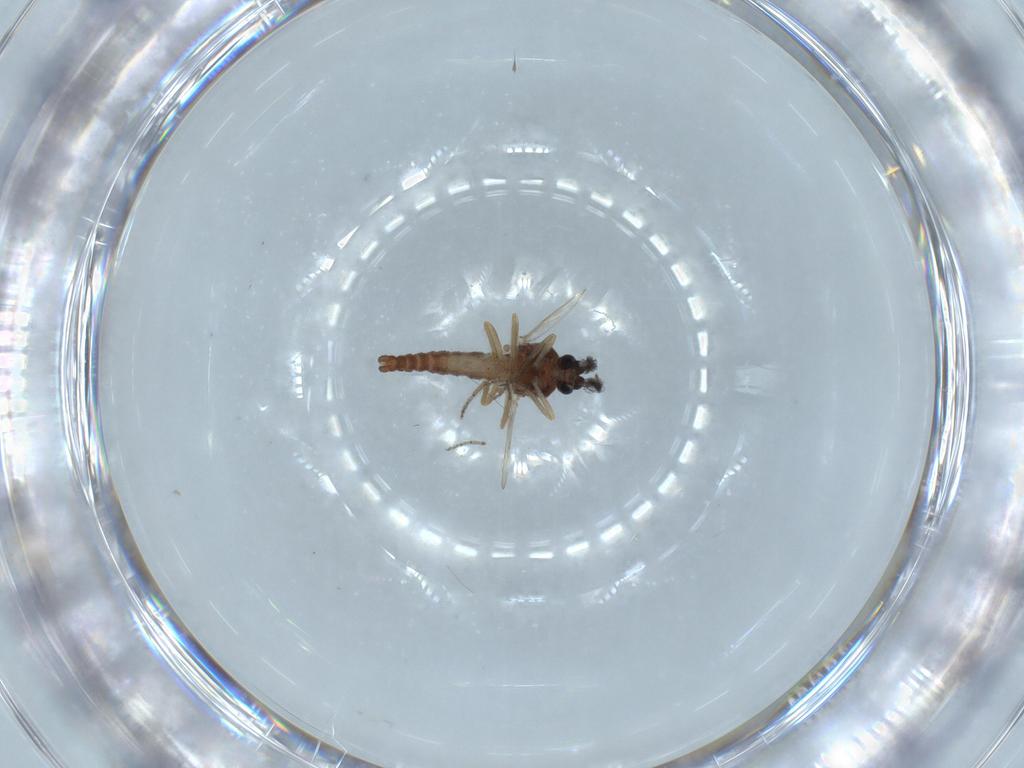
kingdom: Animalia
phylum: Arthropoda
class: Insecta
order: Diptera
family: Ceratopogonidae
